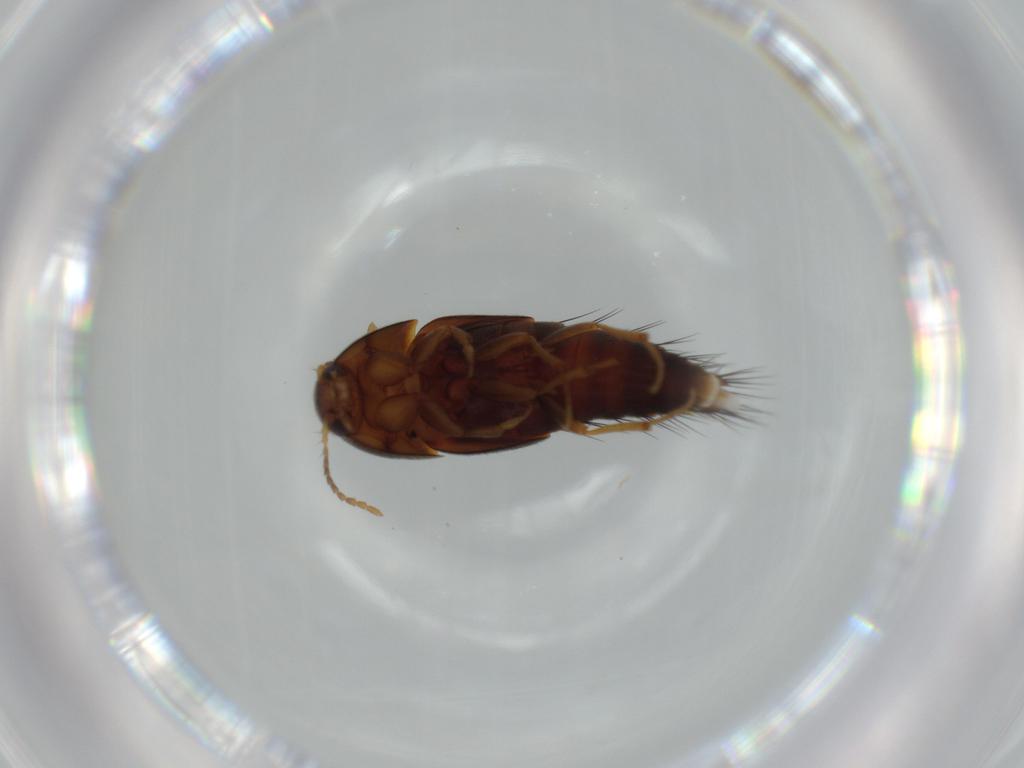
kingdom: Animalia
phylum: Arthropoda
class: Insecta
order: Coleoptera
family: Staphylinidae
